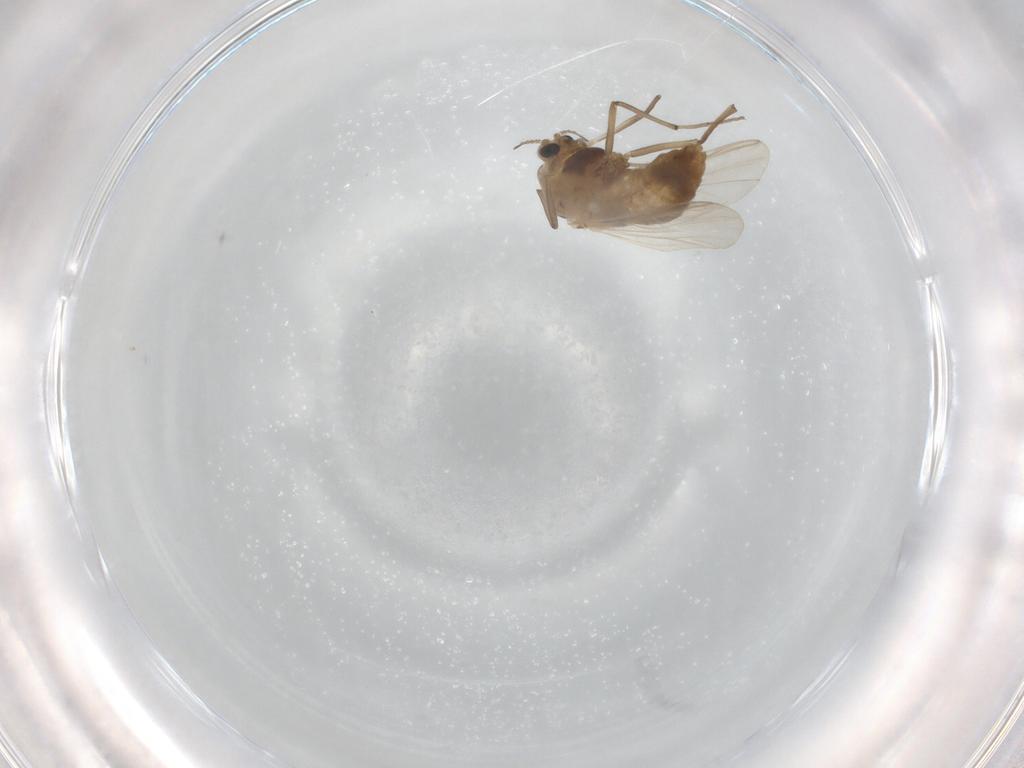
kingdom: Animalia
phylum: Arthropoda
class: Insecta
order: Diptera
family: Chironomidae
